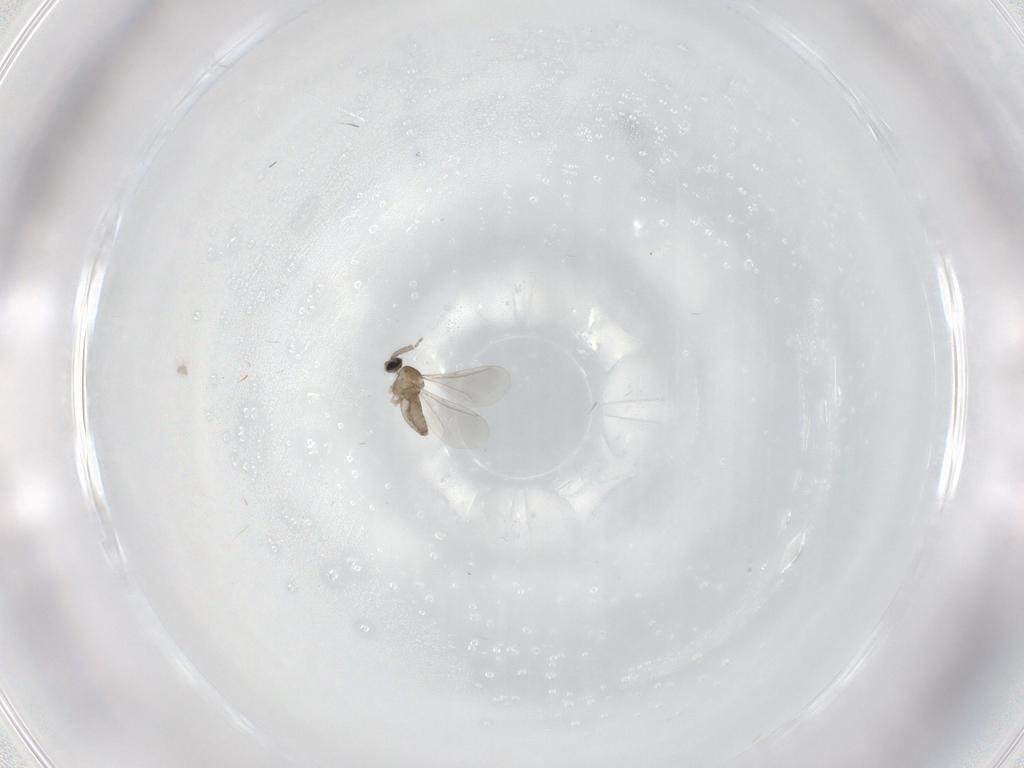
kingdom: Animalia
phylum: Arthropoda
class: Insecta
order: Diptera
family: Cecidomyiidae
